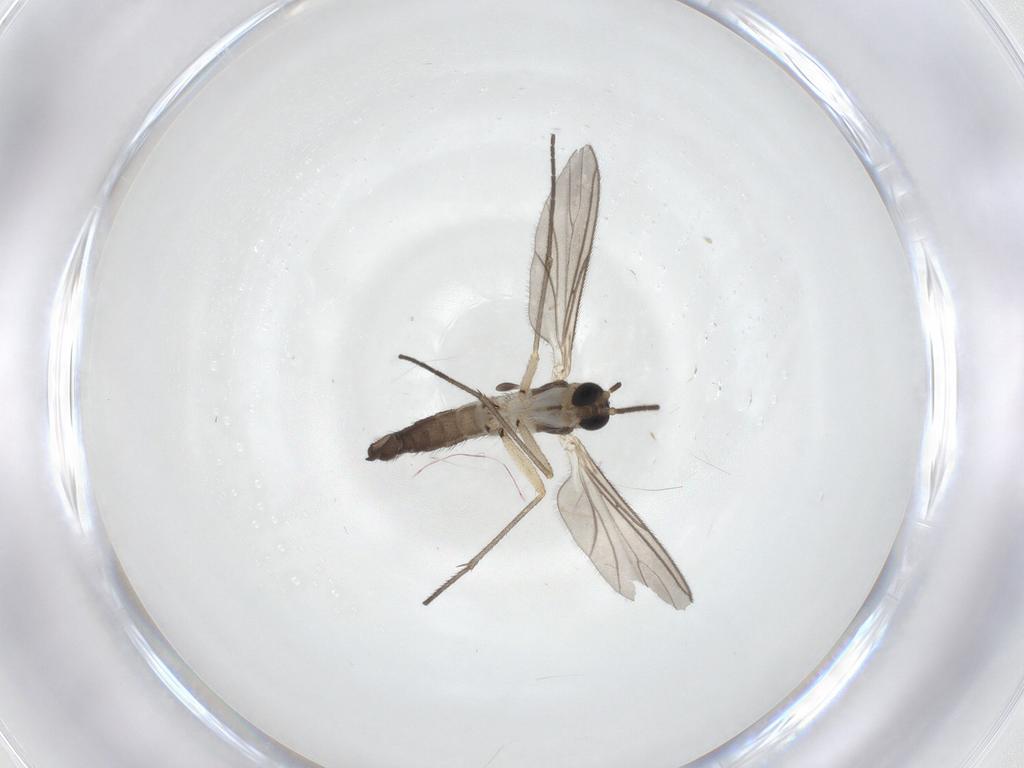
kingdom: Animalia
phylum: Arthropoda
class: Insecta
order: Diptera
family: Sciaridae
